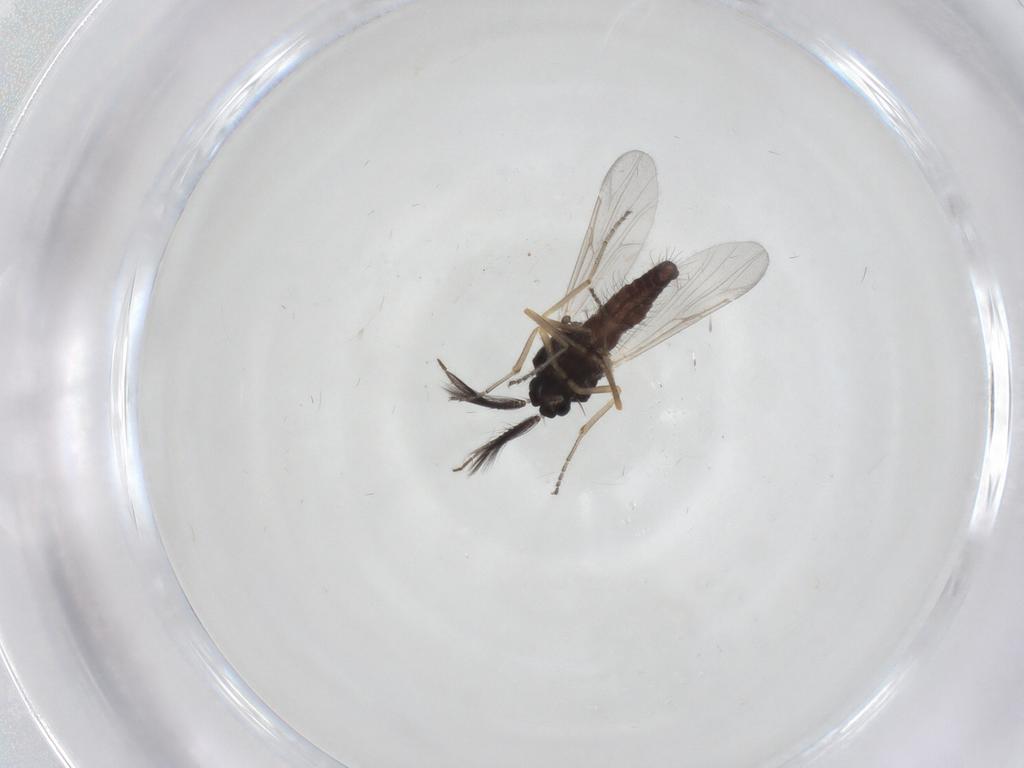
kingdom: Animalia
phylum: Arthropoda
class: Insecta
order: Diptera
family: Ceratopogonidae
